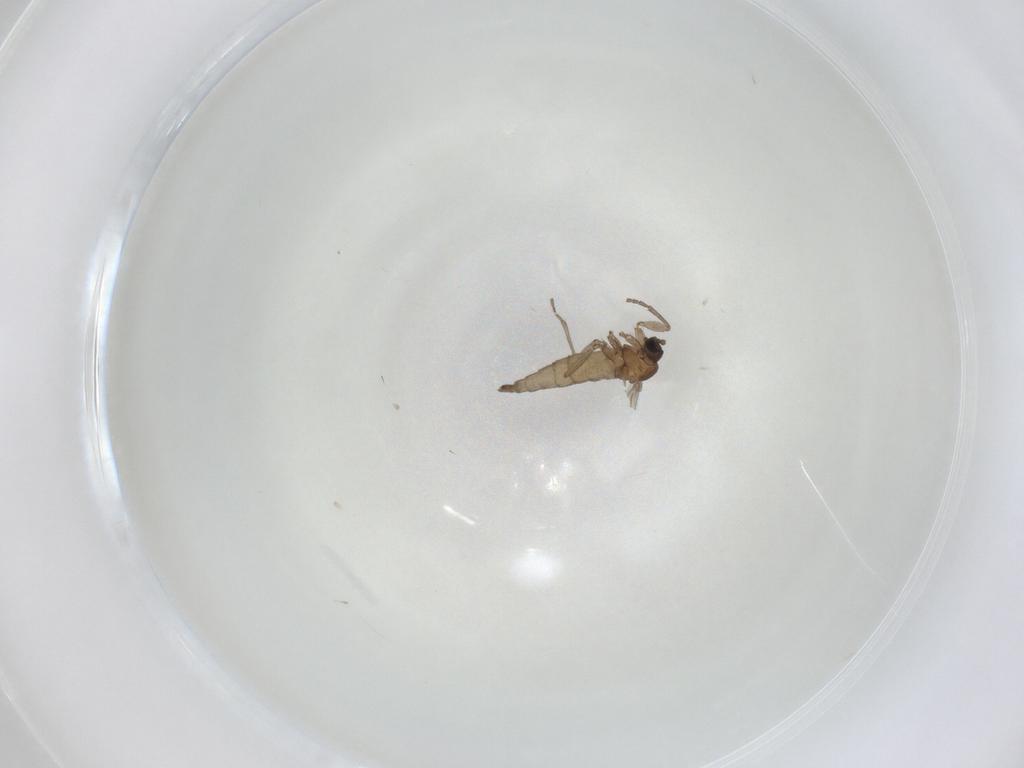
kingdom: Animalia
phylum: Arthropoda
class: Insecta
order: Diptera
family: Sciaridae
